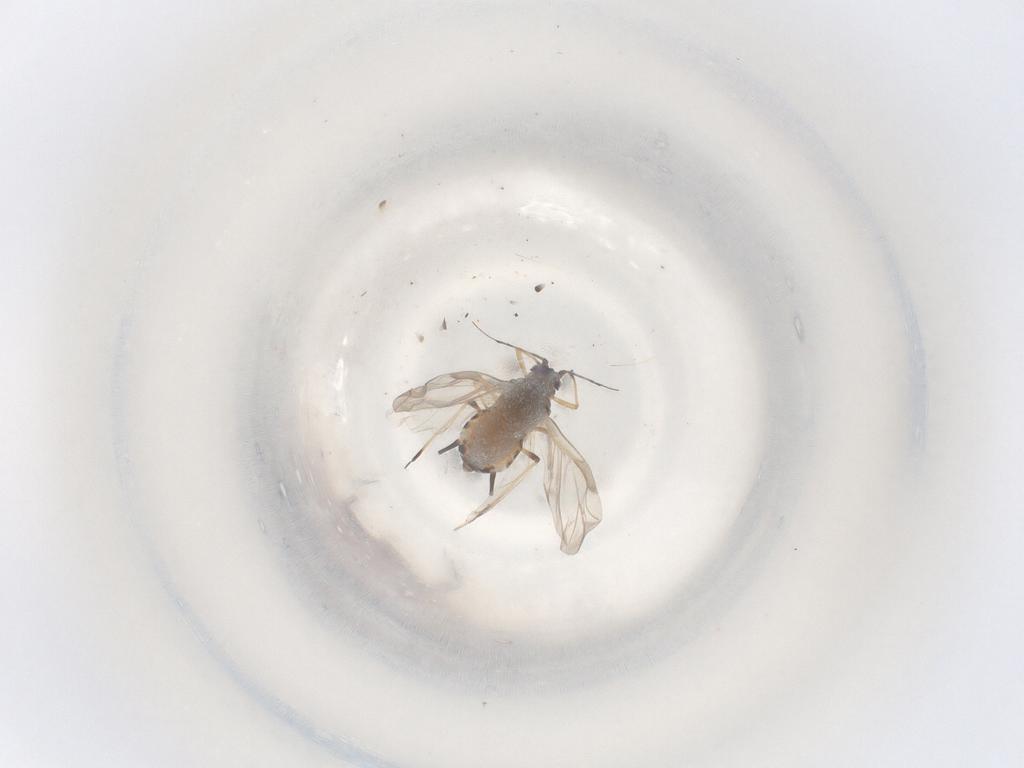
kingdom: Animalia
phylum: Arthropoda
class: Insecta
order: Hemiptera
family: Aphididae
